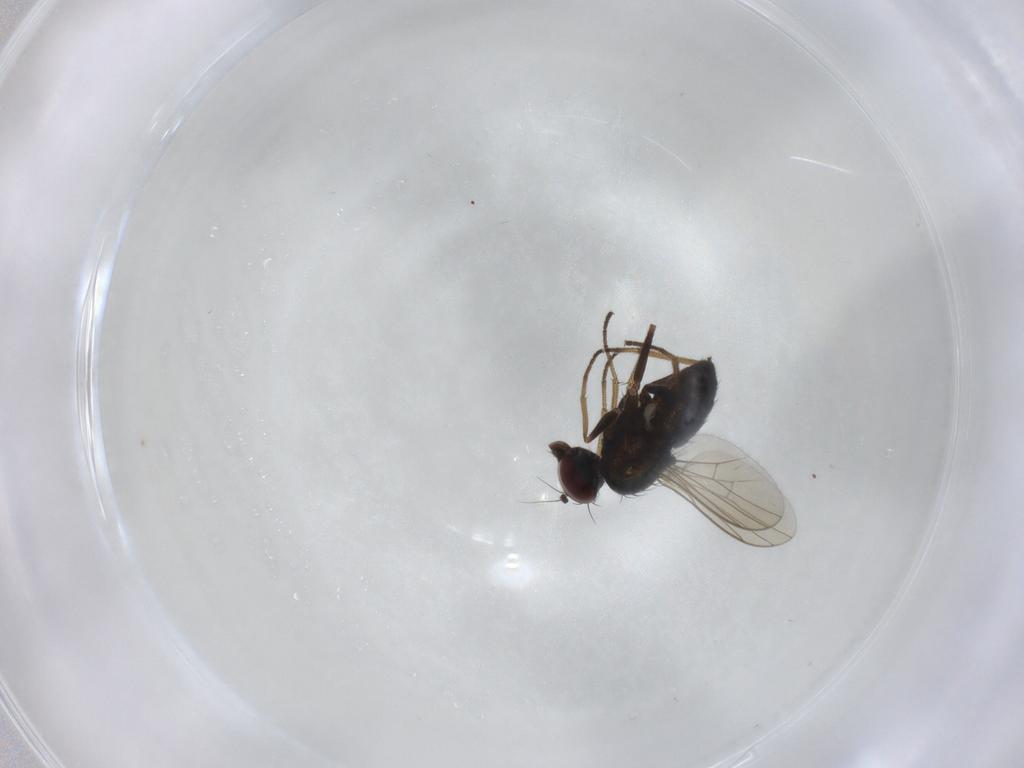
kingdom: Animalia
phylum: Arthropoda
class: Insecta
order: Diptera
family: Dolichopodidae
